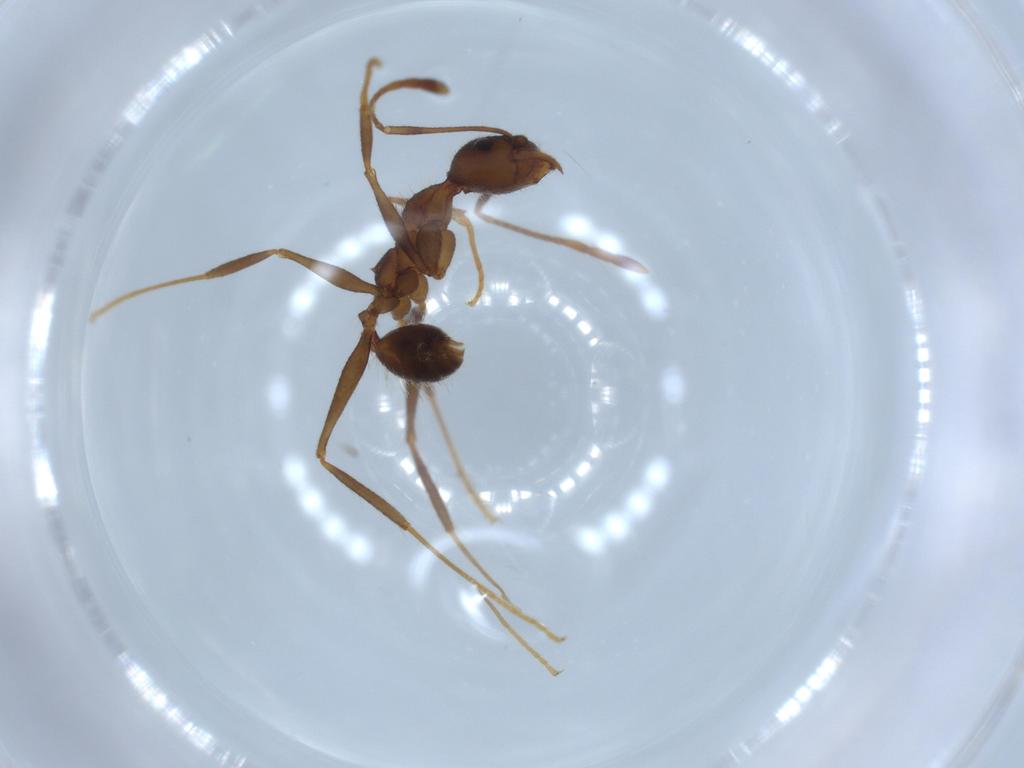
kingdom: Animalia
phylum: Arthropoda
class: Insecta
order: Hymenoptera
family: Formicidae
